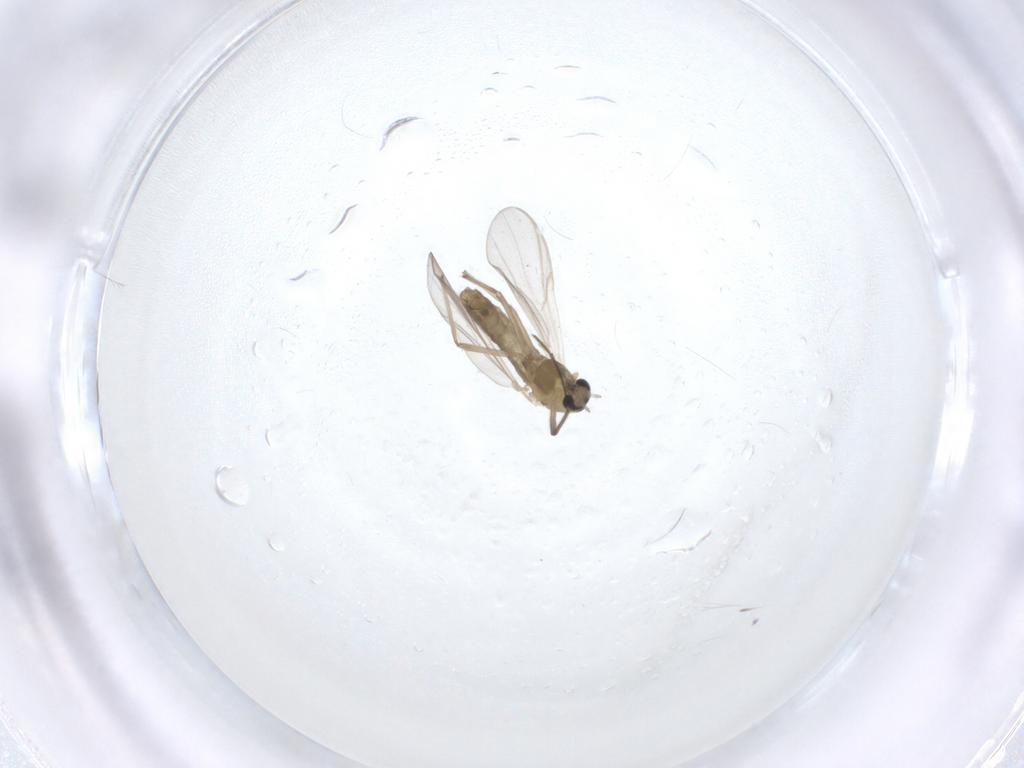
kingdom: Animalia
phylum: Arthropoda
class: Insecta
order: Diptera
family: Chironomidae
